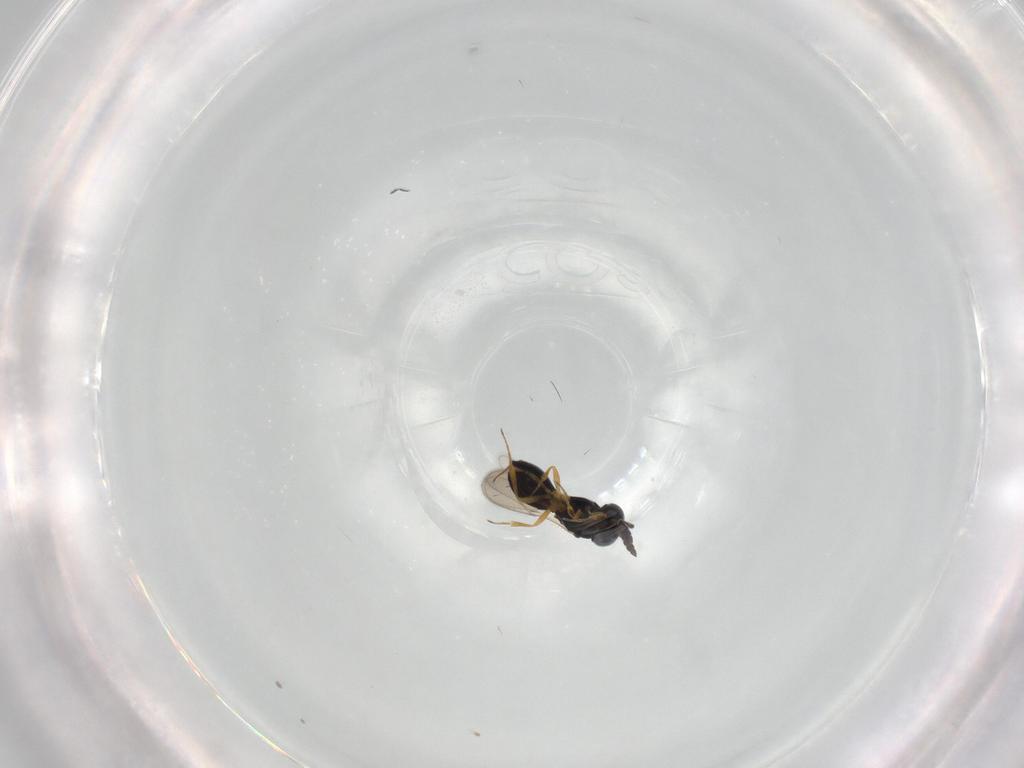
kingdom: Animalia
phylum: Arthropoda
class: Insecta
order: Hymenoptera
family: Scelionidae
